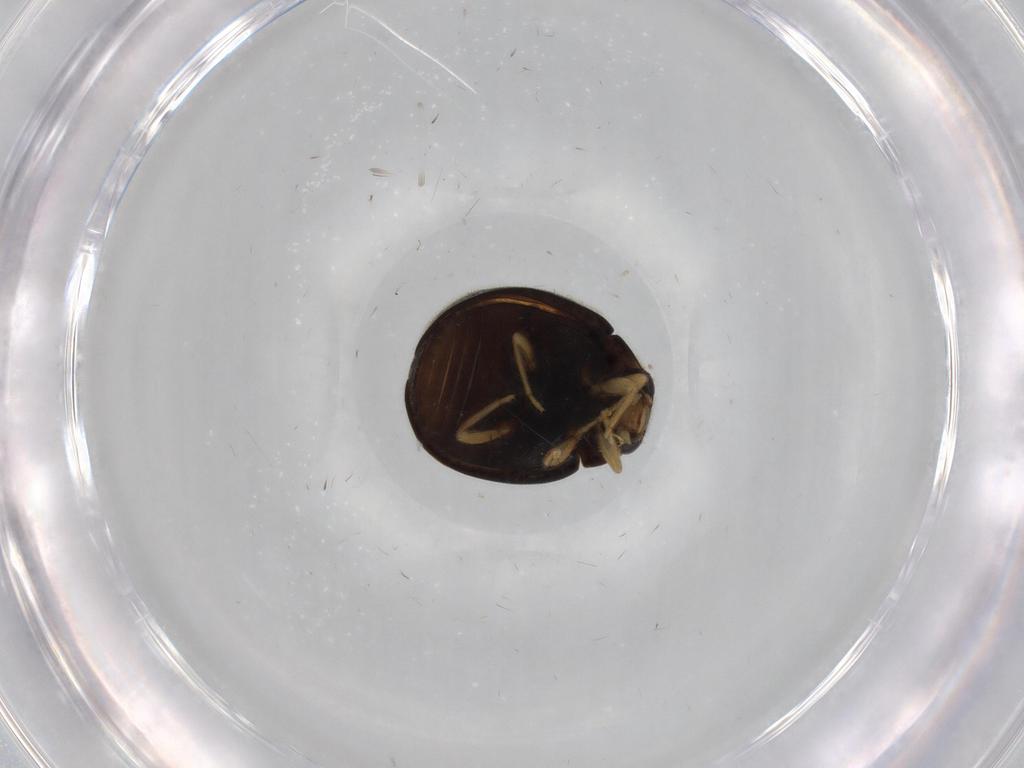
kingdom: Animalia
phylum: Arthropoda
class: Insecta
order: Coleoptera
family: Coccinellidae
